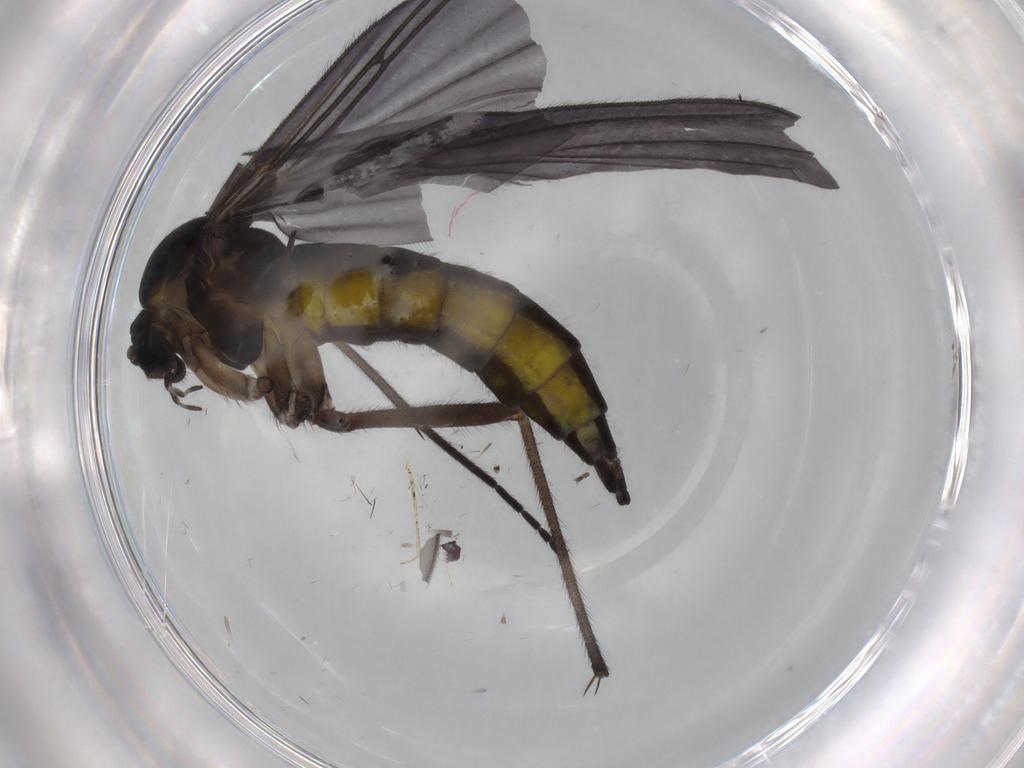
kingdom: Animalia
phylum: Arthropoda
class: Insecta
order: Diptera
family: Sciaridae
